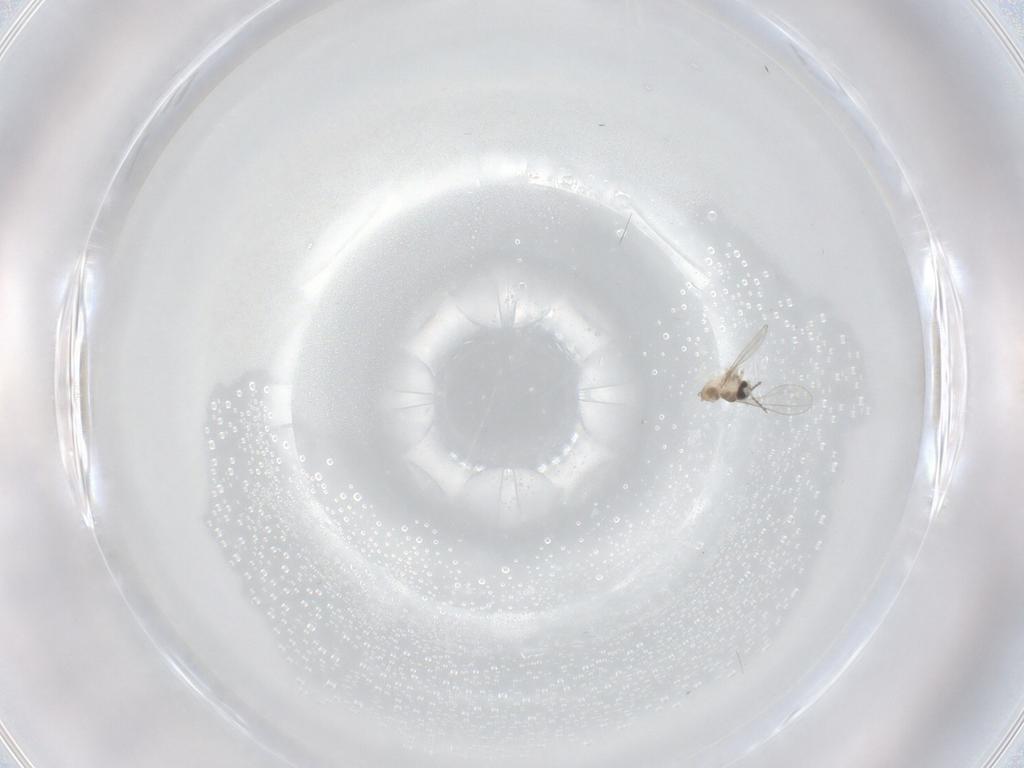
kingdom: Animalia
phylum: Arthropoda
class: Insecta
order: Diptera
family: Cecidomyiidae
